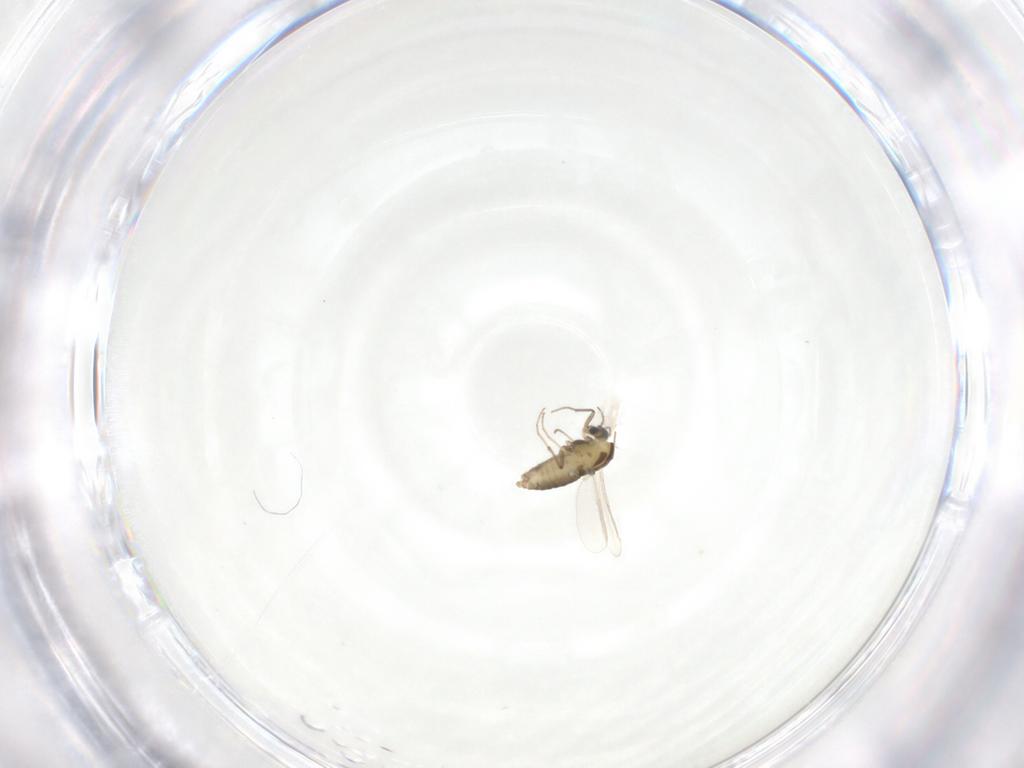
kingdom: Animalia
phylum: Arthropoda
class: Insecta
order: Diptera
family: Chironomidae
